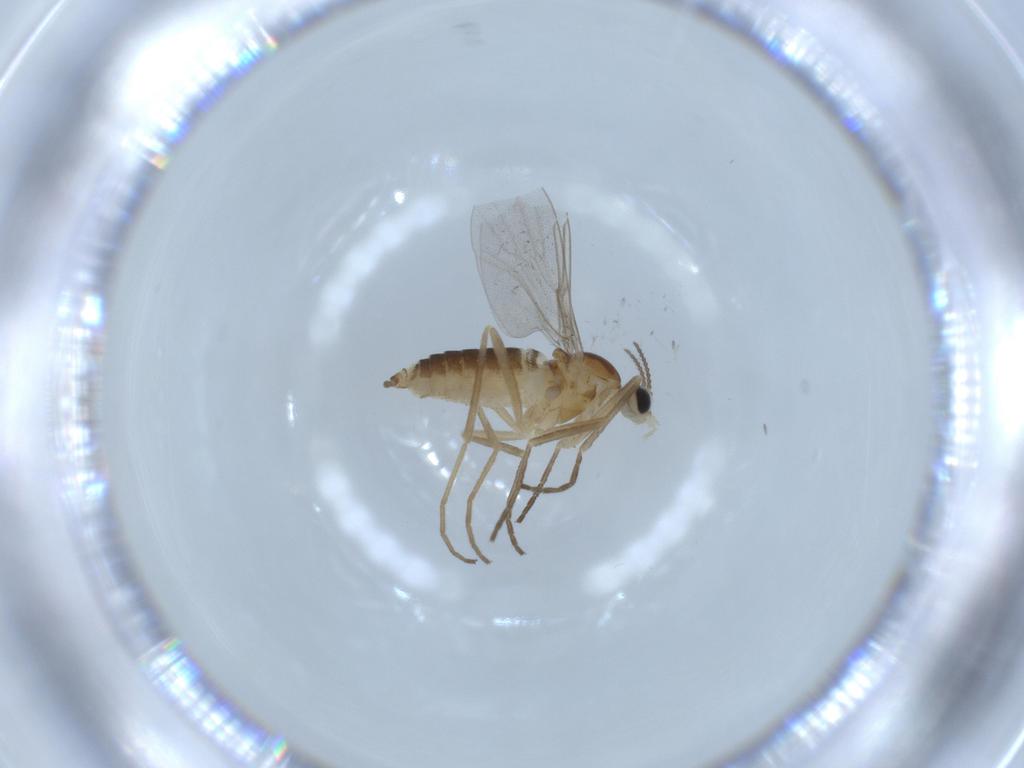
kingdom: Animalia
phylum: Arthropoda
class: Insecta
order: Diptera
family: Cecidomyiidae
